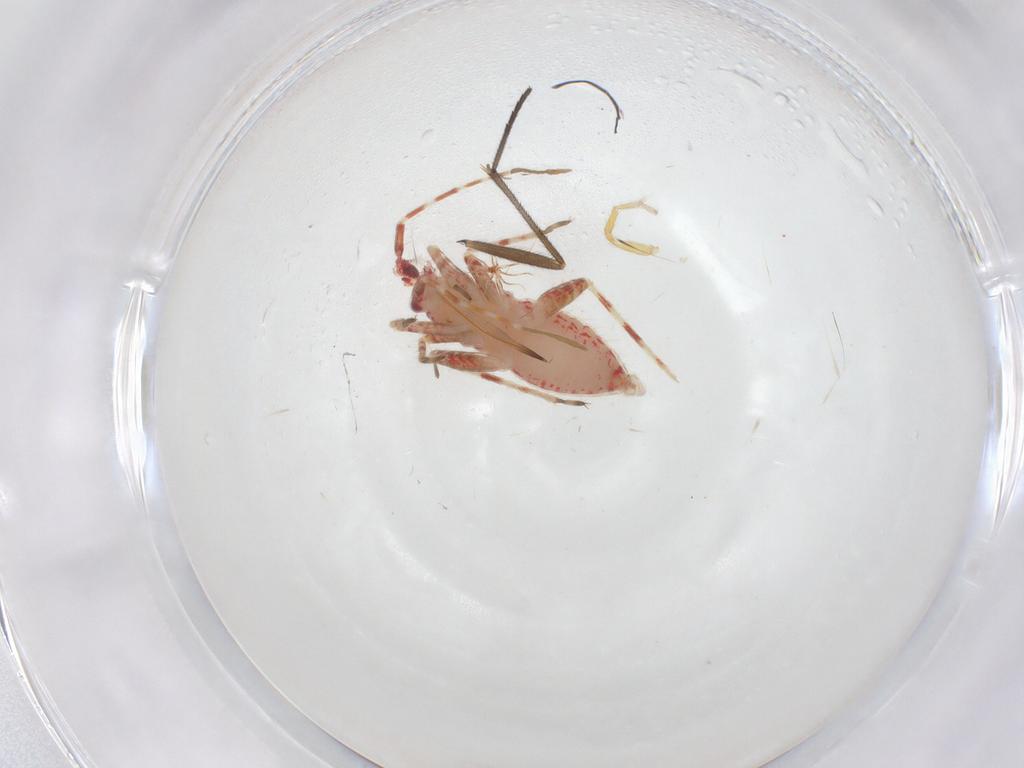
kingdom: Animalia
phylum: Arthropoda
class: Insecta
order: Hemiptera
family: Miridae
